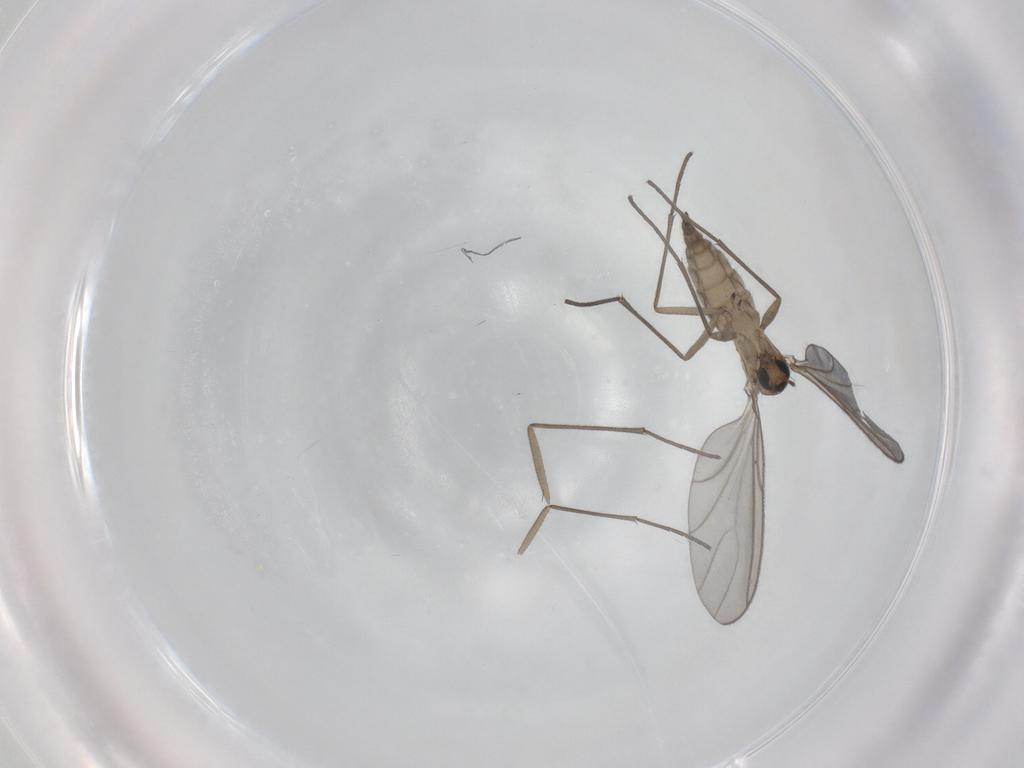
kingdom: Animalia
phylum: Arthropoda
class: Insecta
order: Diptera
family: Sciaridae
